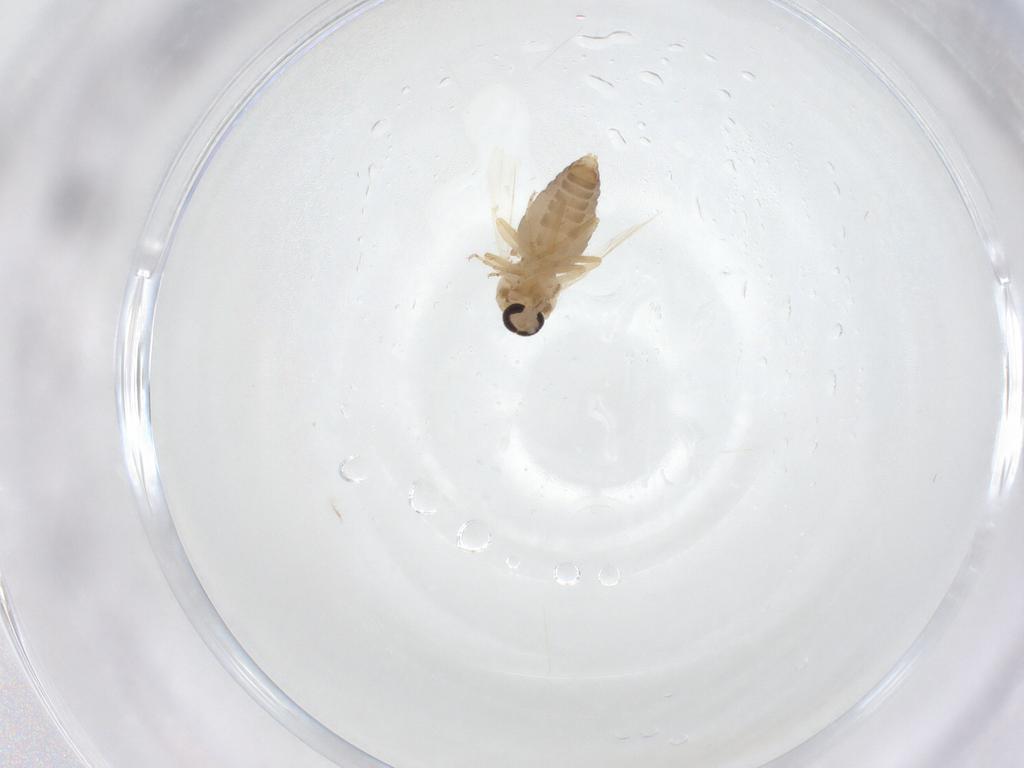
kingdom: Animalia
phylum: Arthropoda
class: Insecta
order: Diptera
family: Ceratopogonidae
